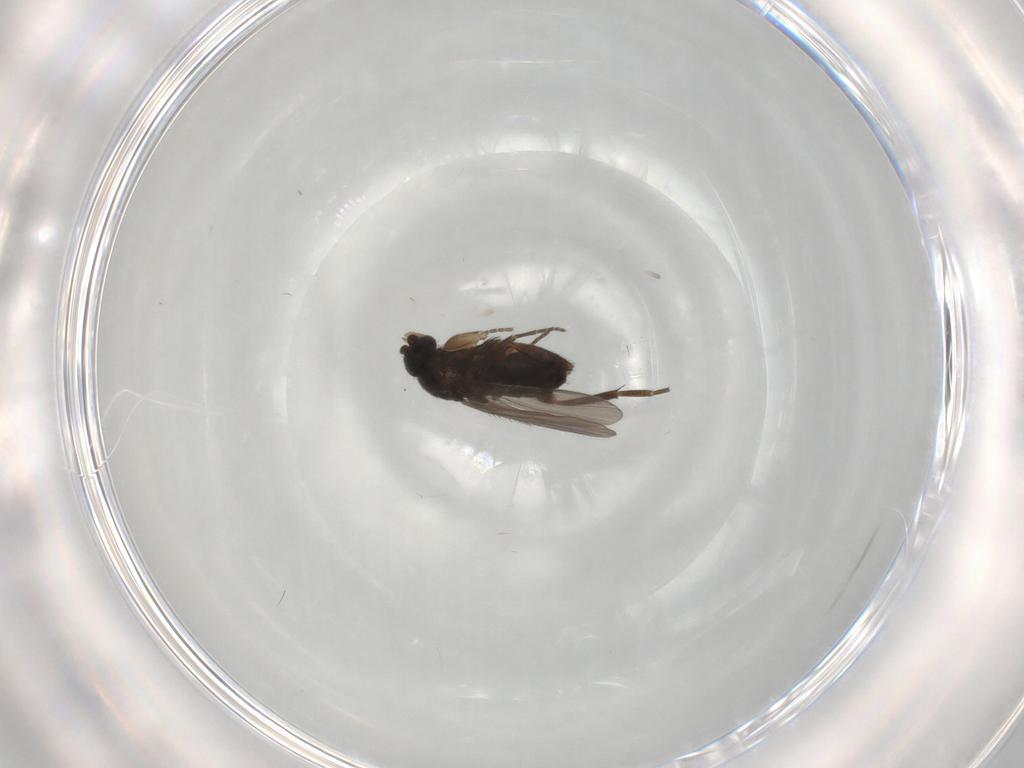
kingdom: Animalia
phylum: Arthropoda
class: Insecta
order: Diptera
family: Phoridae
